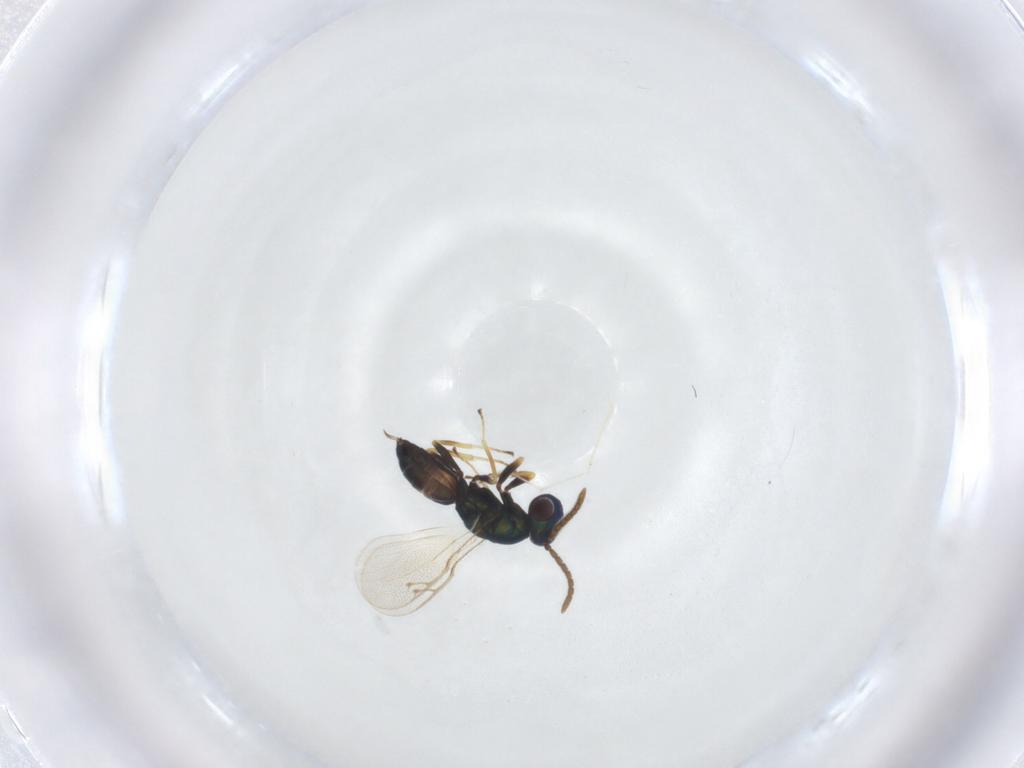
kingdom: Animalia
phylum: Arthropoda
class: Insecta
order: Hymenoptera
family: Pteromalidae
